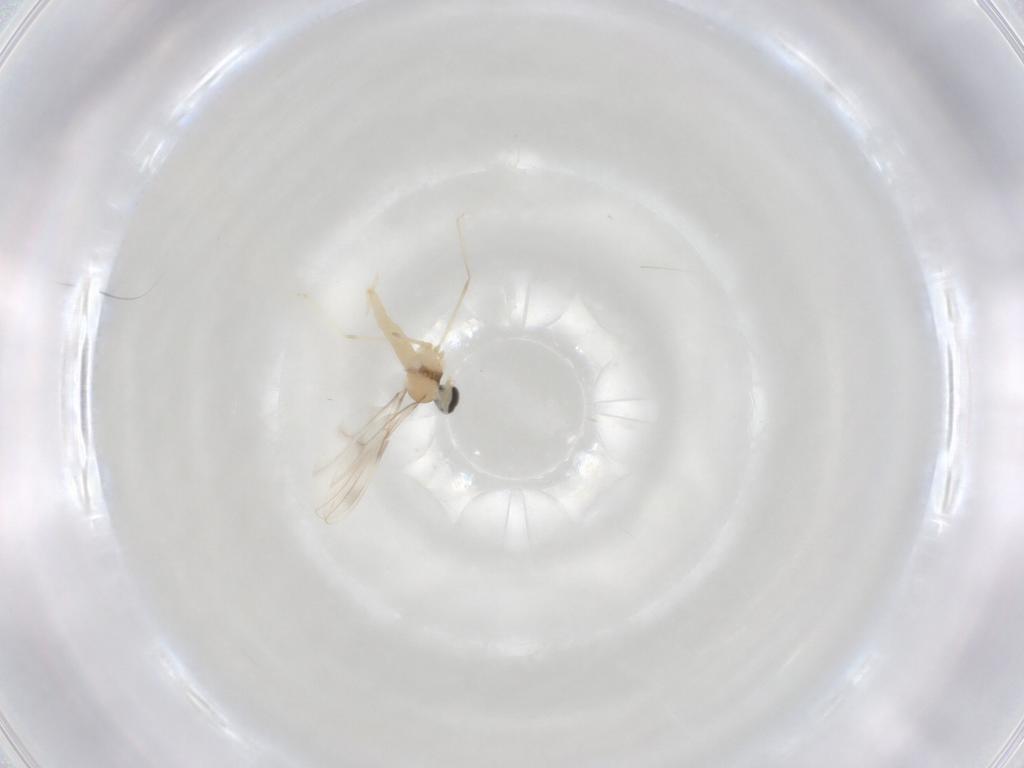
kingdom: Animalia
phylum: Arthropoda
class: Insecta
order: Diptera
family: Cecidomyiidae
